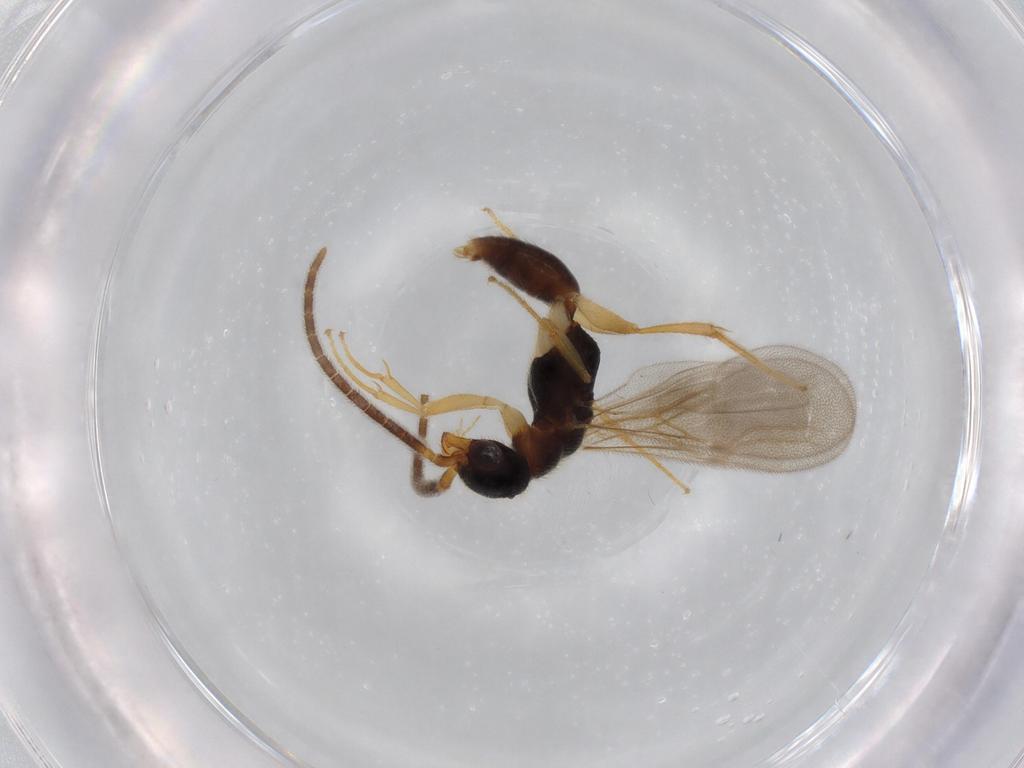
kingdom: Animalia
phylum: Arthropoda
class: Insecta
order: Hymenoptera
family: Bethylidae
